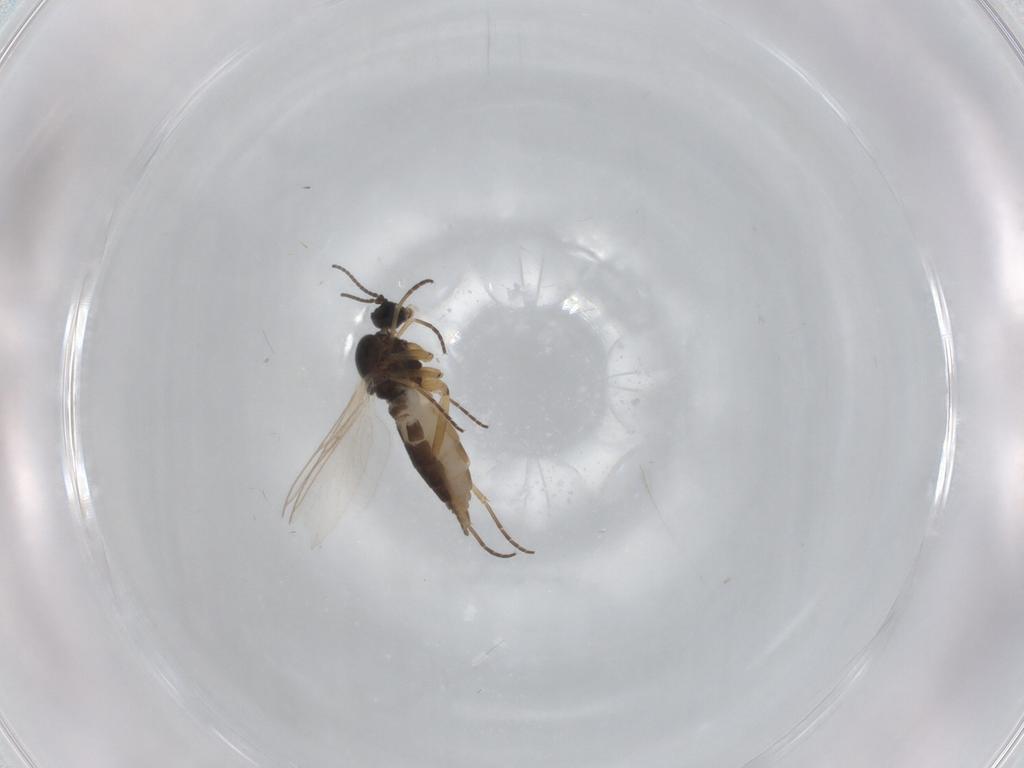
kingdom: Animalia
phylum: Arthropoda
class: Insecta
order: Diptera
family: Sciaridae
